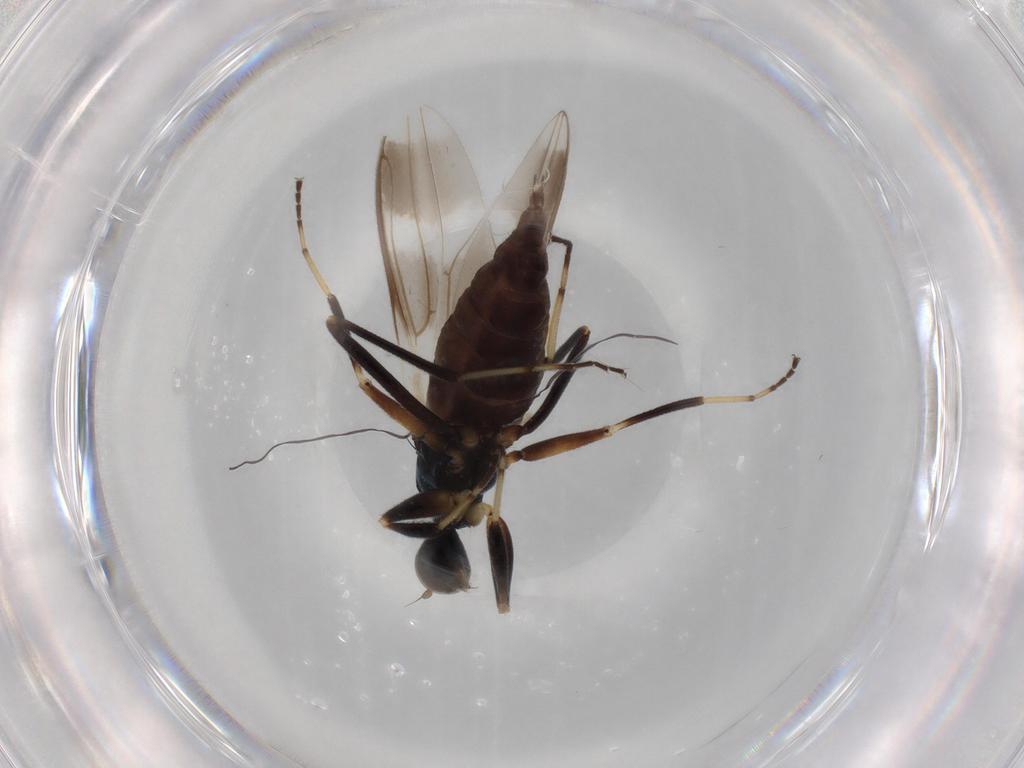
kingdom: Animalia
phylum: Arthropoda
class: Insecta
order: Diptera
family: Hybotidae
